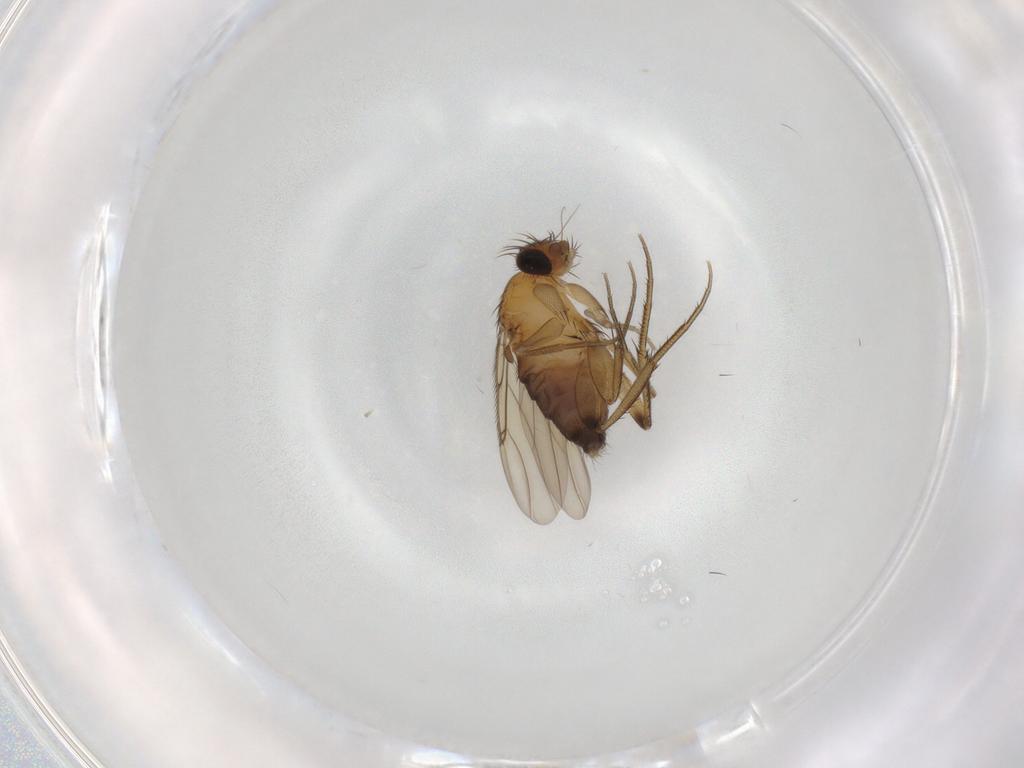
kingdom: Animalia
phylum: Arthropoda
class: Insecta
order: Diptera
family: Phoridae
